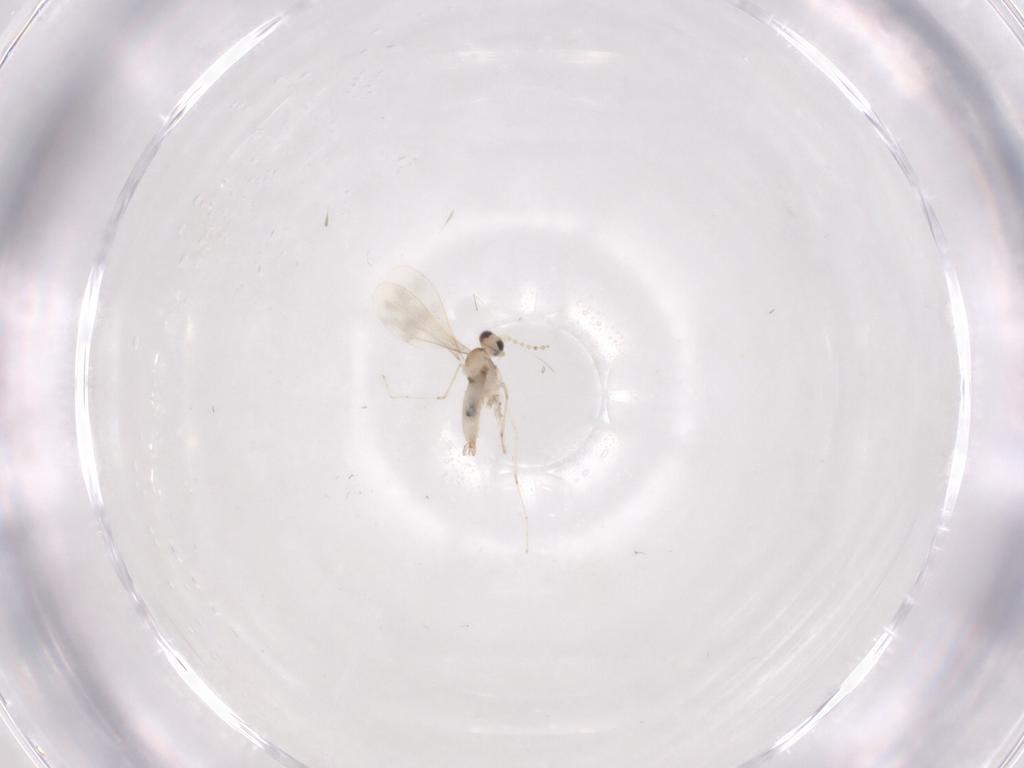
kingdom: Animalia
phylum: Arthropoda
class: Insecta
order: Diptera
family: Cecidomyiidae
